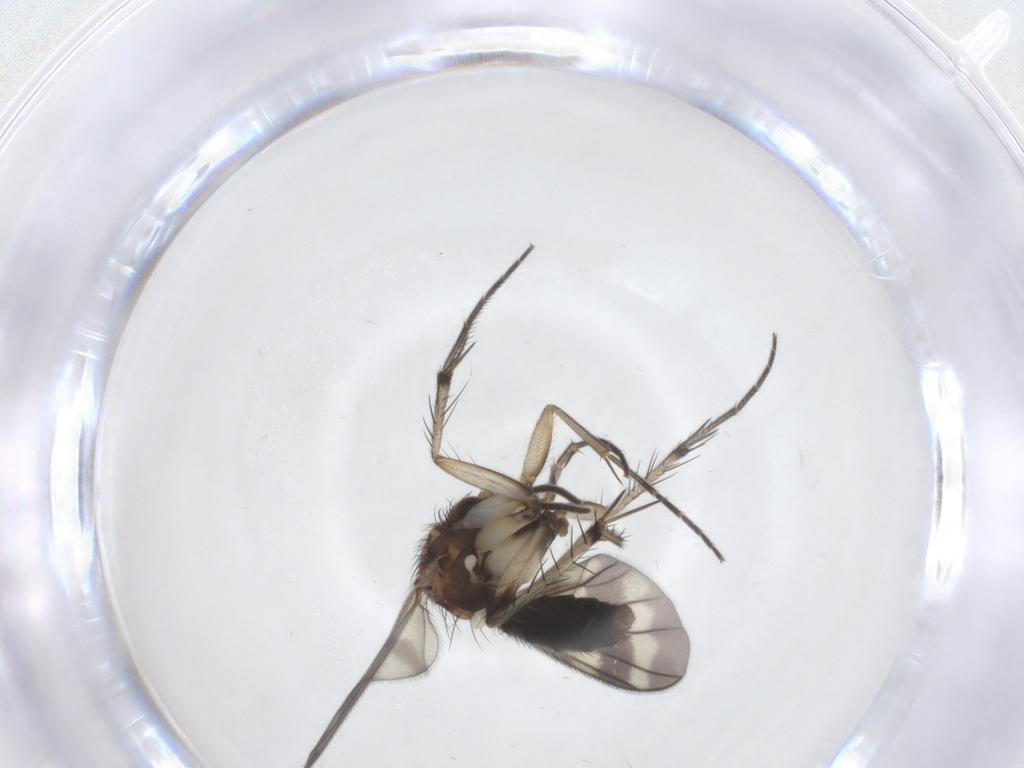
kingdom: Animalia
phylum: Arthropoda
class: Insecta
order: Diptera
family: Mycetophilidae
